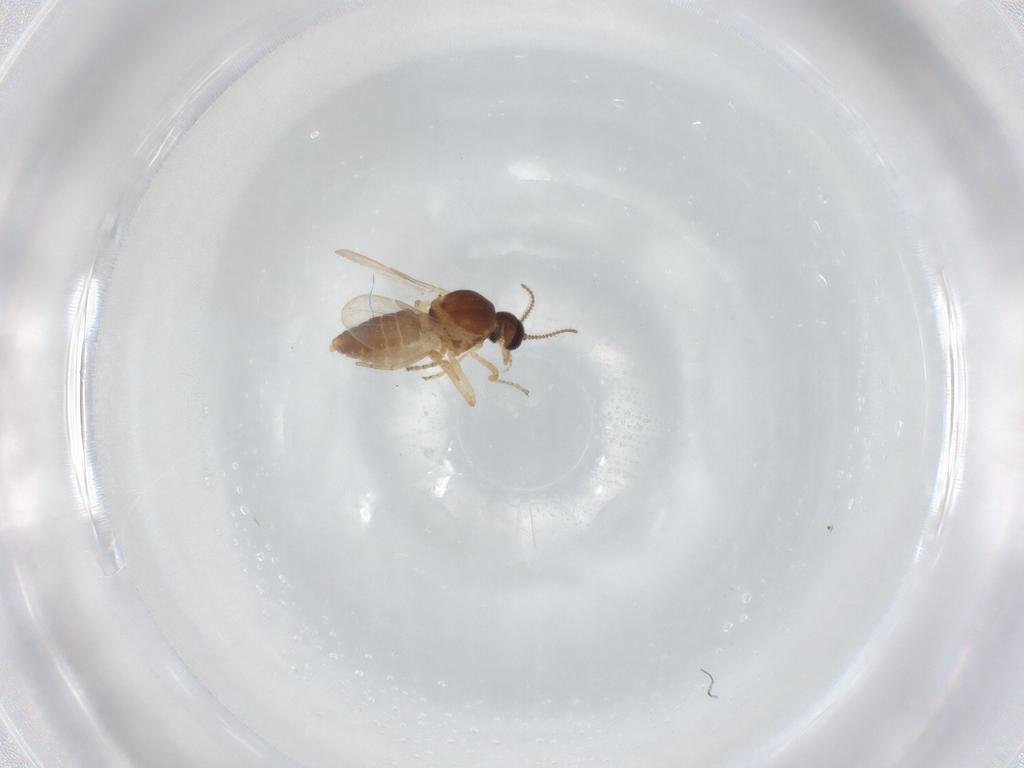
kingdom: Animalia
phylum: Arthropoda
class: Insecta
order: Diptera
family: Ceratopogonidae
